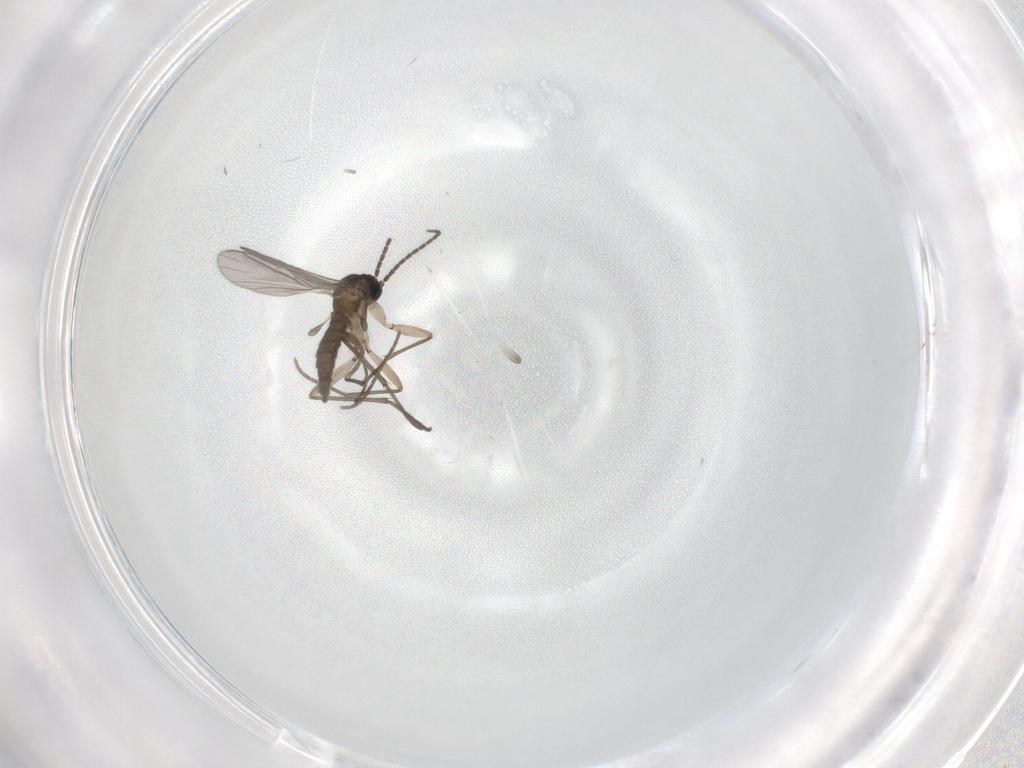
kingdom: Animalia
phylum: Arthropoda
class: Insecta
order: Diptera
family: Sciaridae
